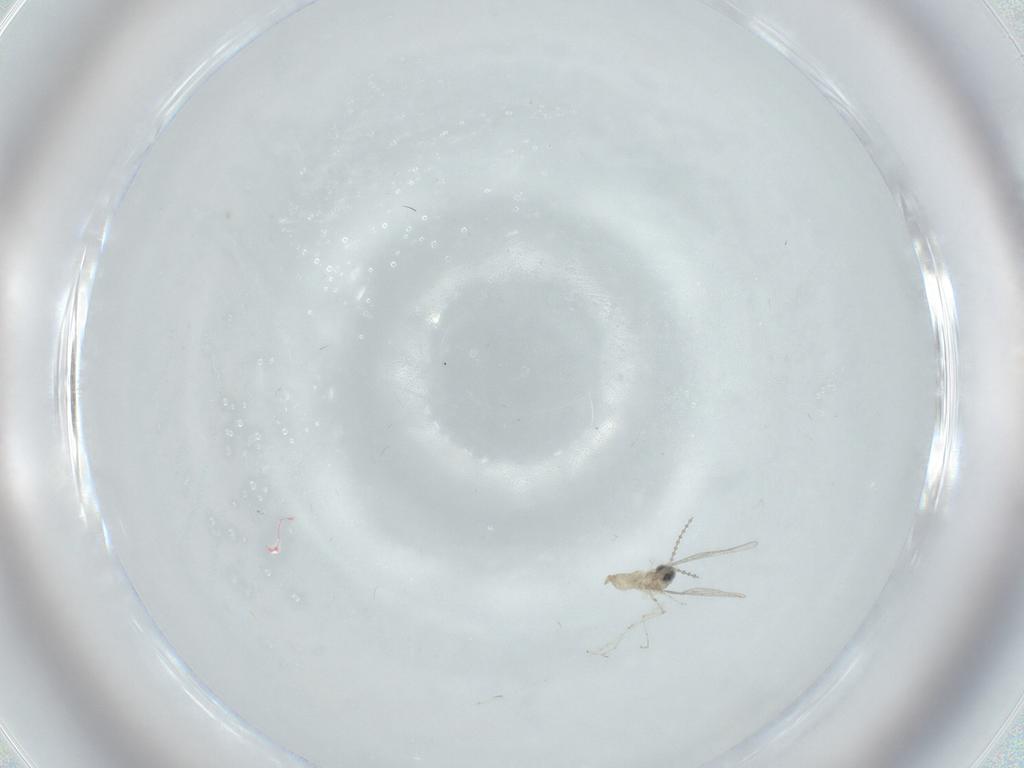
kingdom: Animalia
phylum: Arthropoda
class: Insecta
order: Diptera
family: Cecidomyiidae
